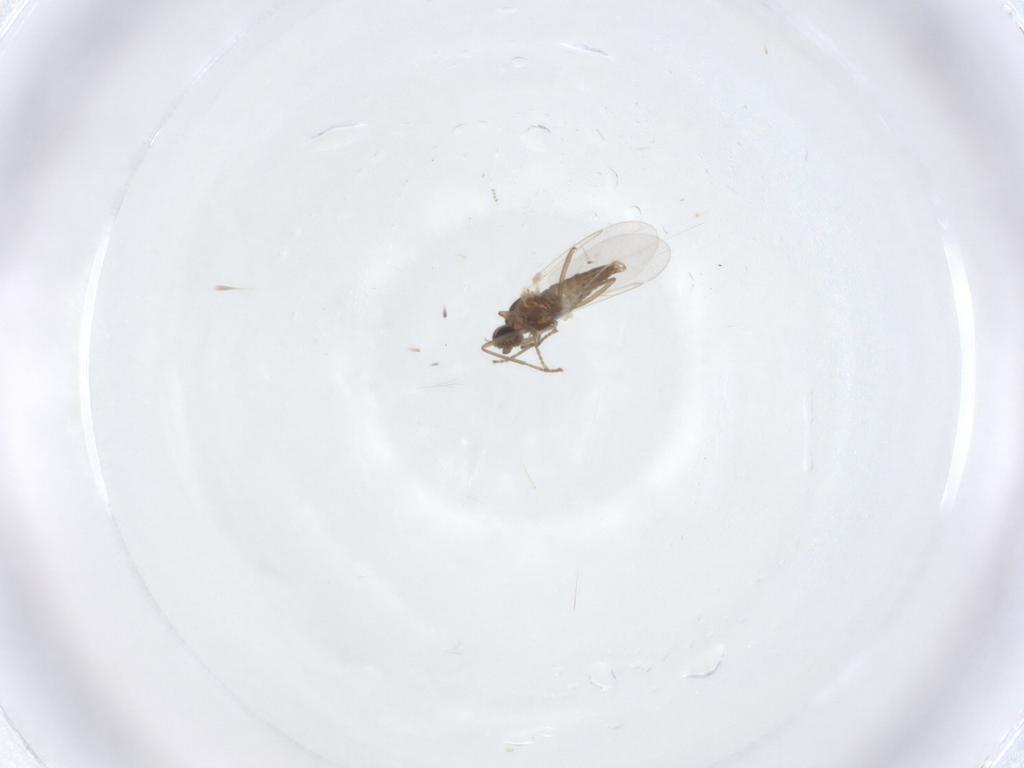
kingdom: Animalia
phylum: Arthropoda
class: Insecta
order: Diptera
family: Cecidomyiidae
